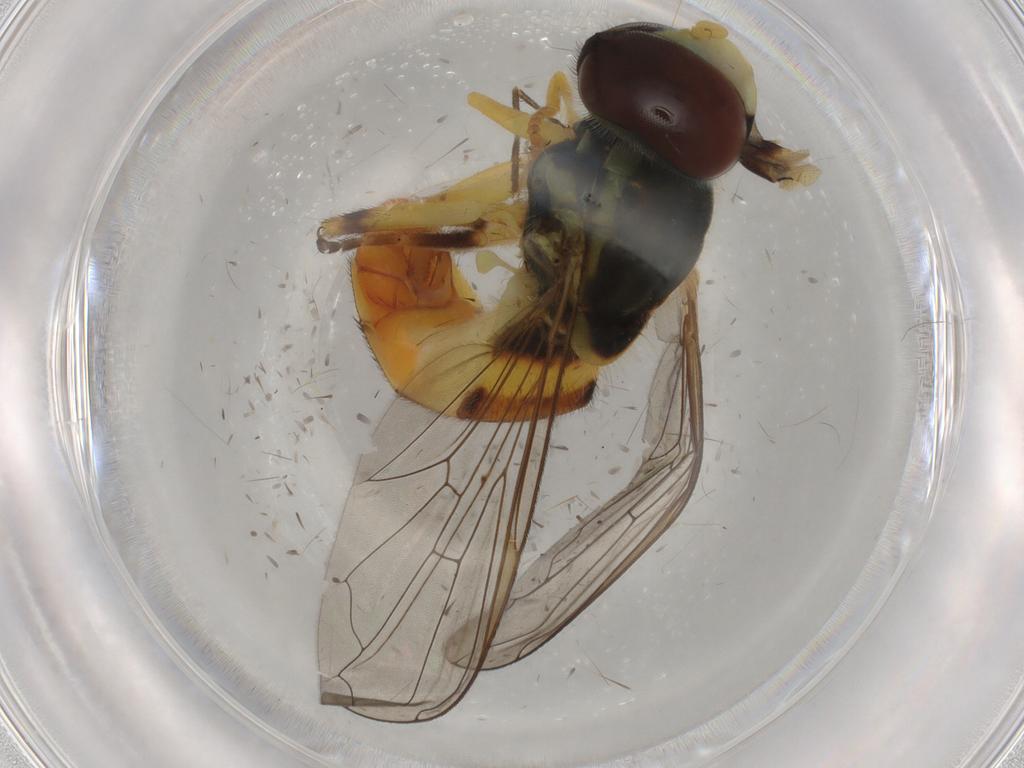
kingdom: Animalia
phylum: Arthropoda
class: Insecta
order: Diptera
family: Syrphidae
